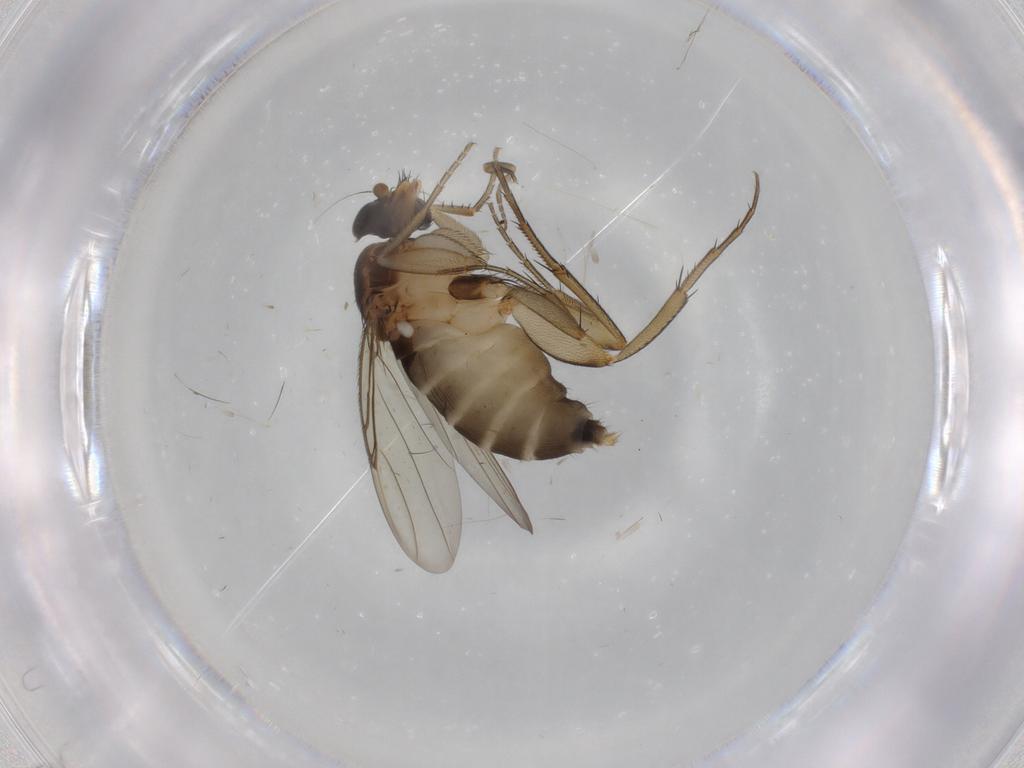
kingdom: Animalia
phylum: Arthropoda
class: Insecta
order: Diptera
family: Phoridae
